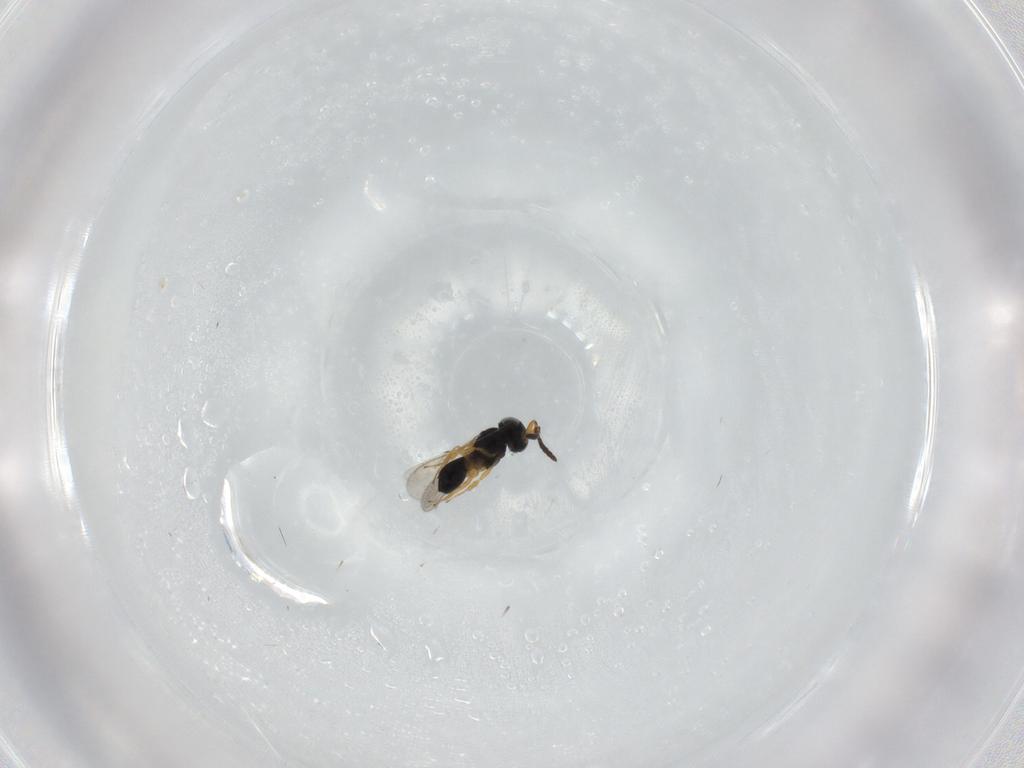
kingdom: Animalia
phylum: Arthropoda
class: Insecta
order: Hymenoptera
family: Scelionidae
